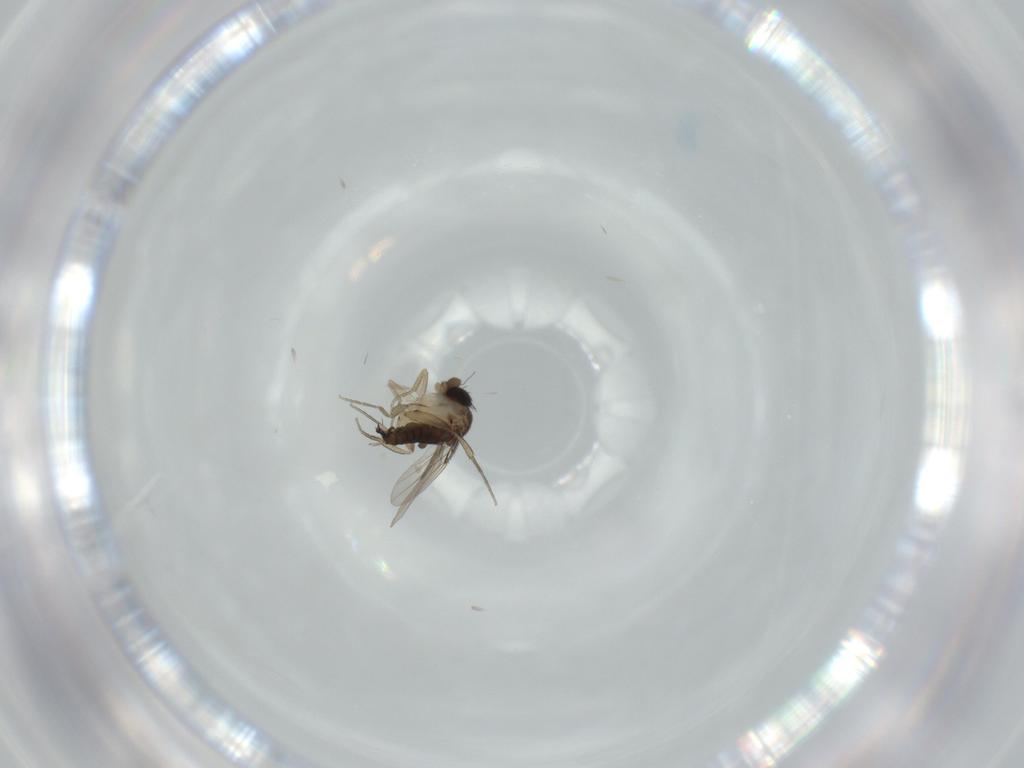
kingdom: Animalia
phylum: Arthropoda
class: Insecta
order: Diptera
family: Phoridae
